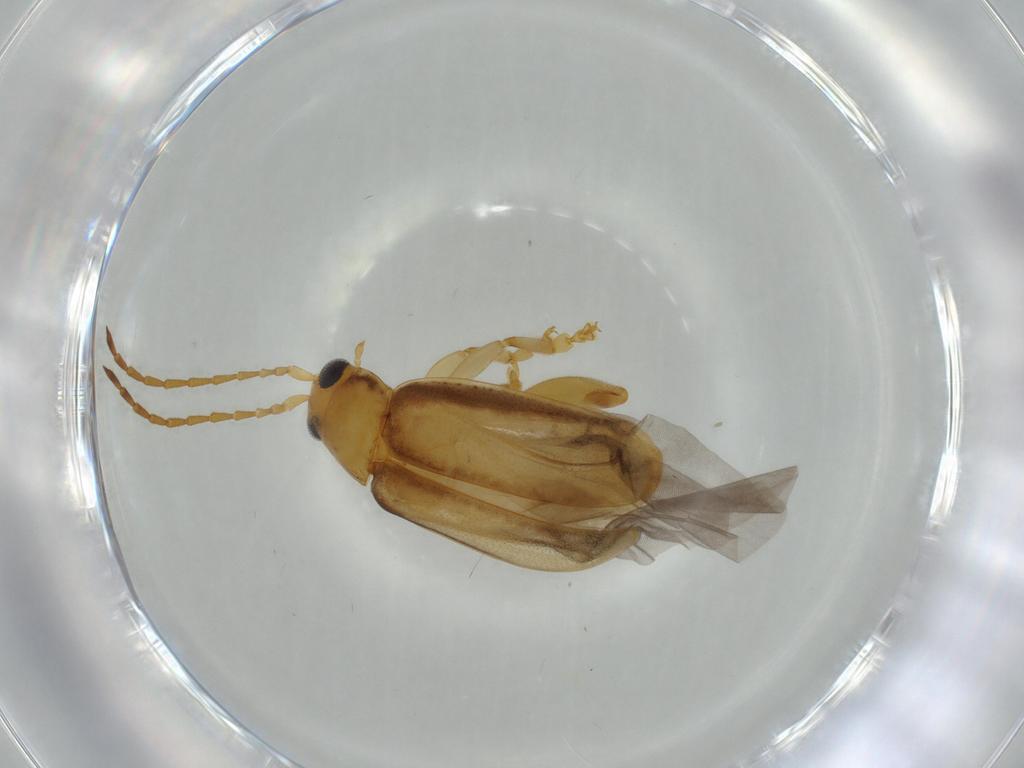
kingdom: Animalia
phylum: Arthropoda
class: Insecta
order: Coleoptera
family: Chrysomelidae
